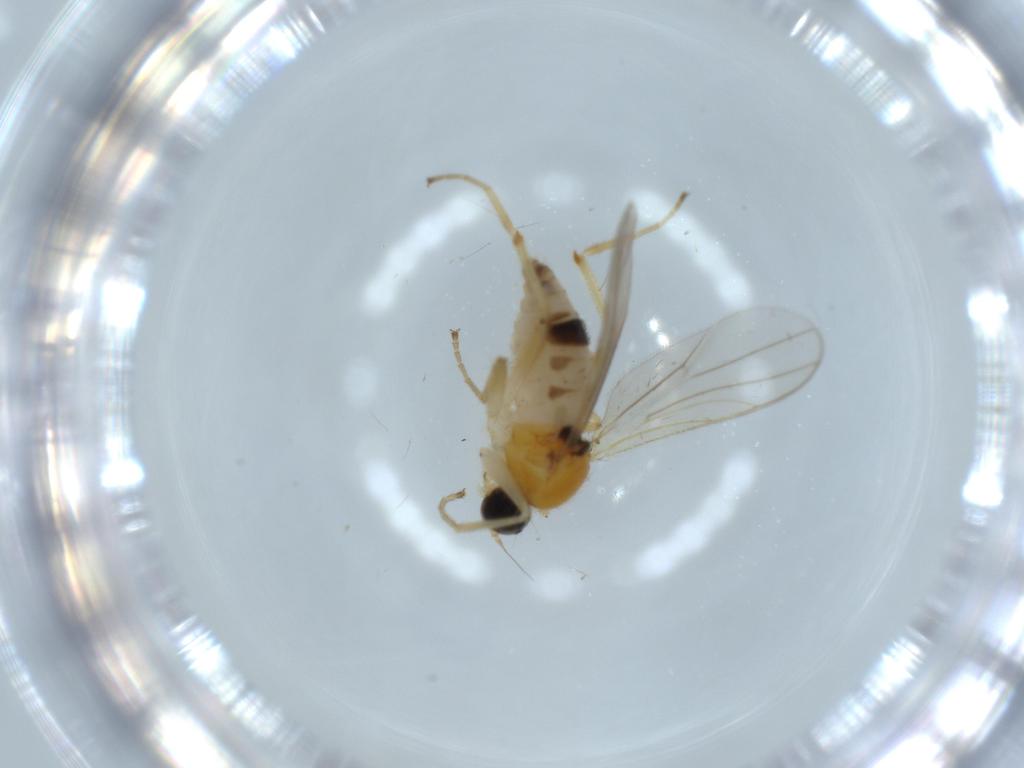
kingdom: Animalia
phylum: Arthropoda
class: Insecta
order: Diptera
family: Hybotidae
